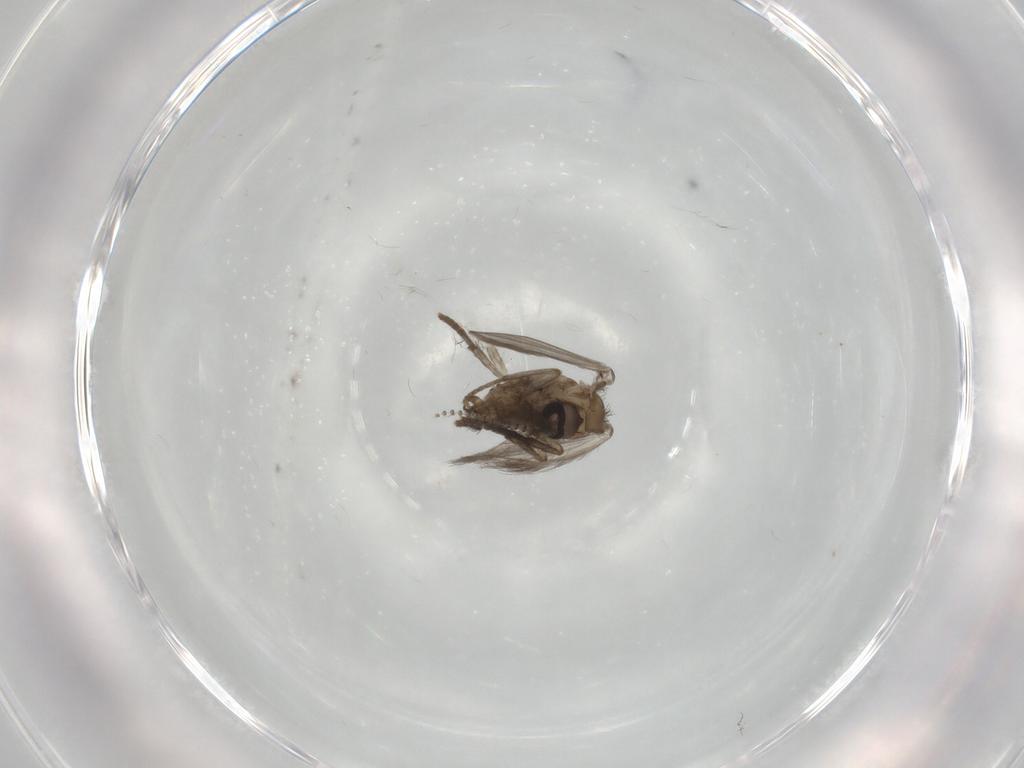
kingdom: Animalia
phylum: Arthropoda
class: Insecta
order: Diptera
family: Psychodidae
